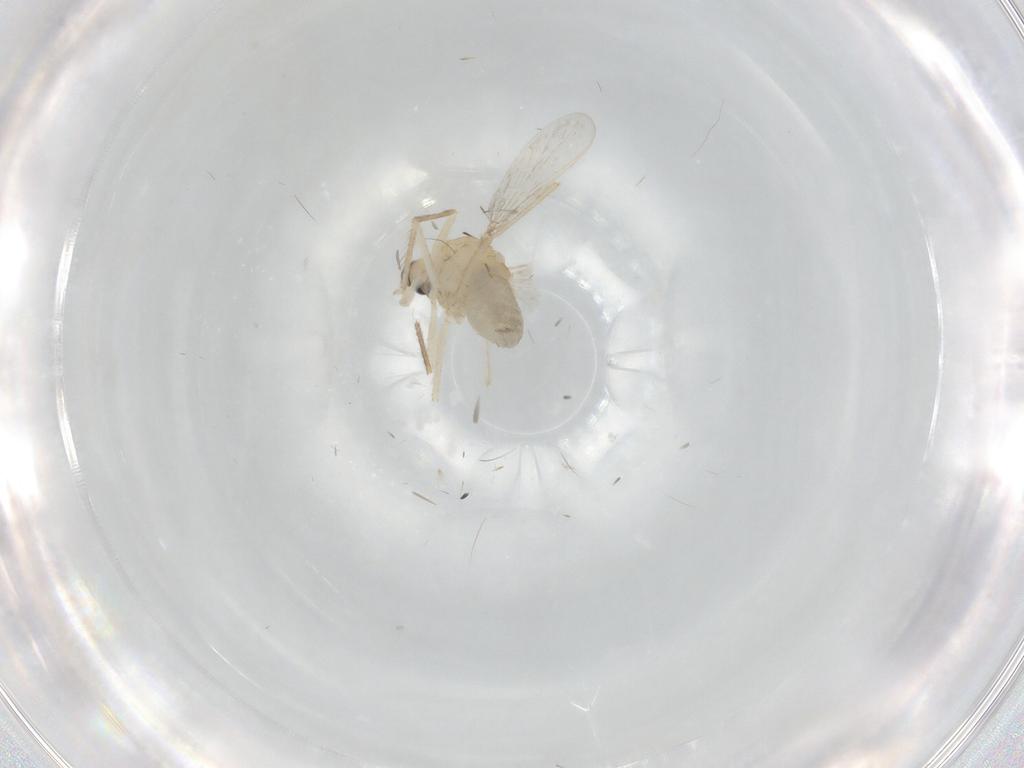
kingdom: Animalia
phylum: Arthropoda
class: Insecta
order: Diptera
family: Chironomidae
